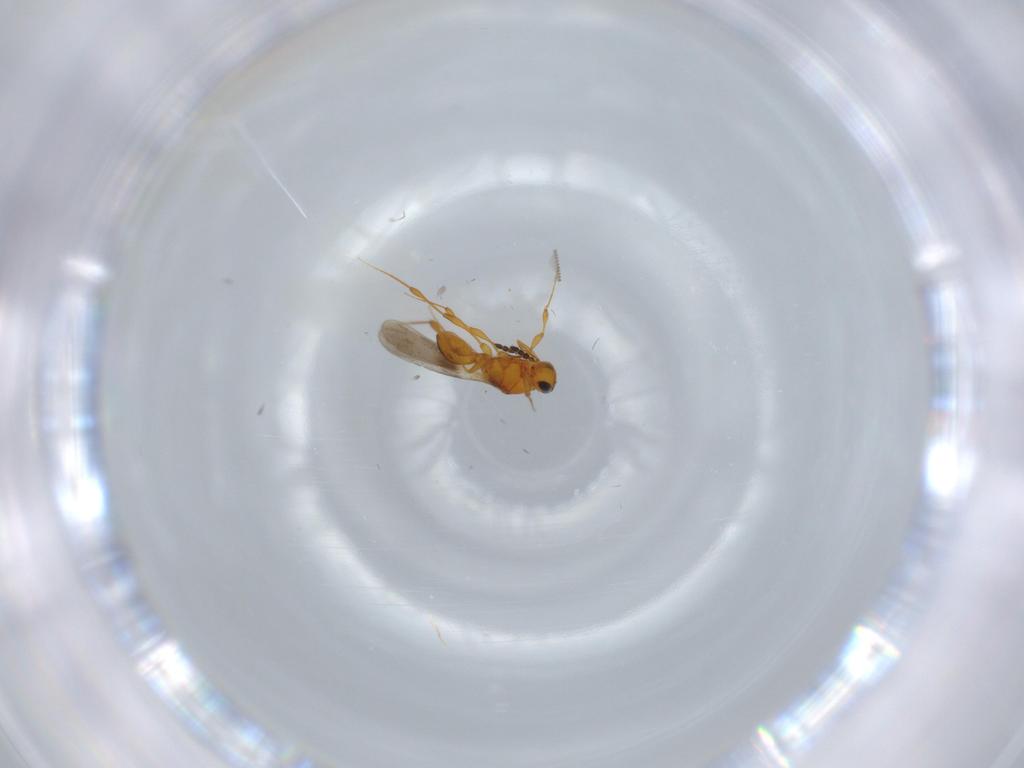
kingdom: Animalia
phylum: Arthropoda
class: Insecta
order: Hymenoptera
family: Platygastridae
